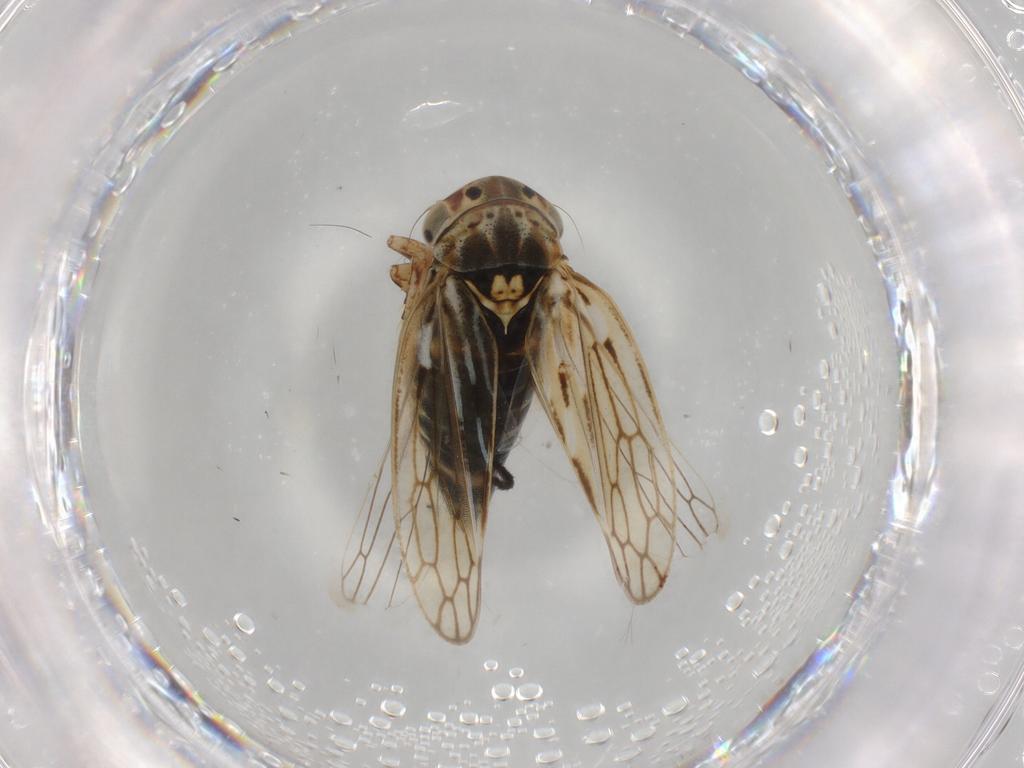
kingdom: Animalia
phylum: Arthropoda
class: Insecta
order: Hemiptera
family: Cicadellidae
